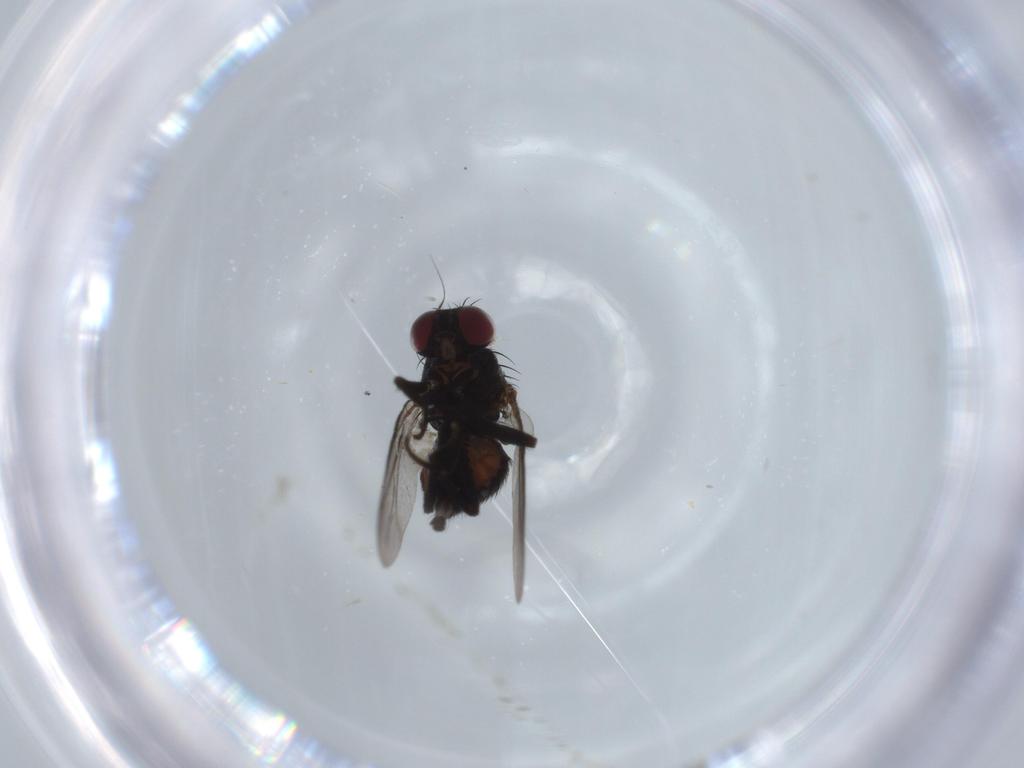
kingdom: Animalia
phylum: Arthropoda
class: Insecta
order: Diptera
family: Agromyzidae
